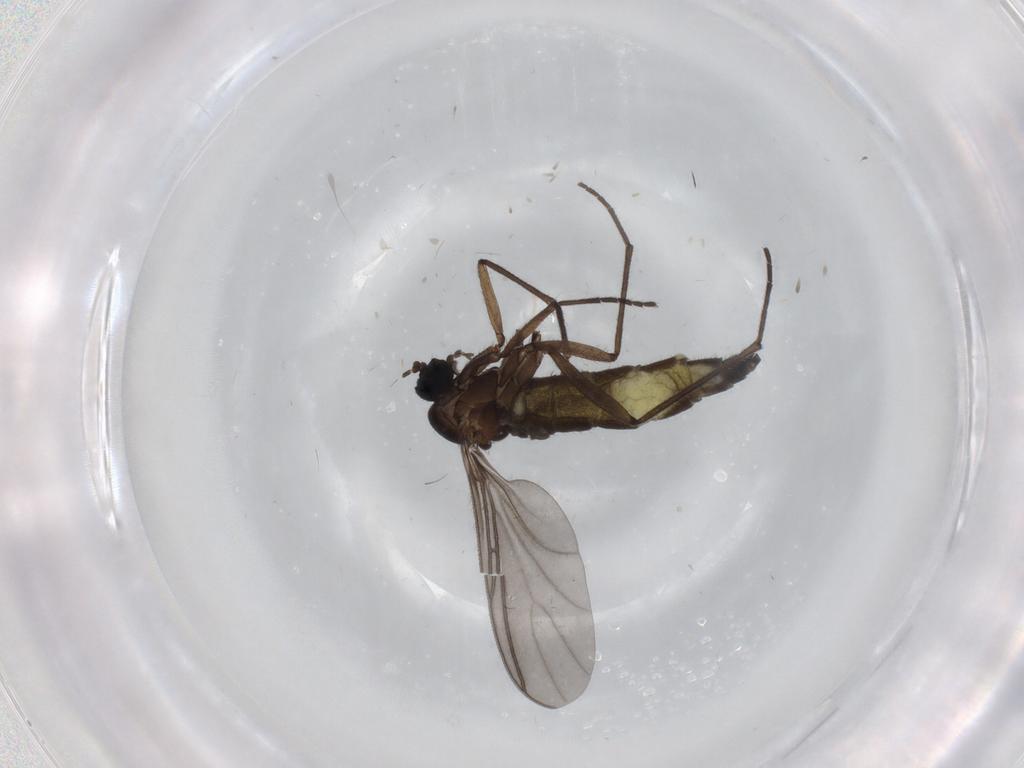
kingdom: Animalia
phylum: Arthropoda
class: Insecta
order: Diptera
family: Sciaridae
